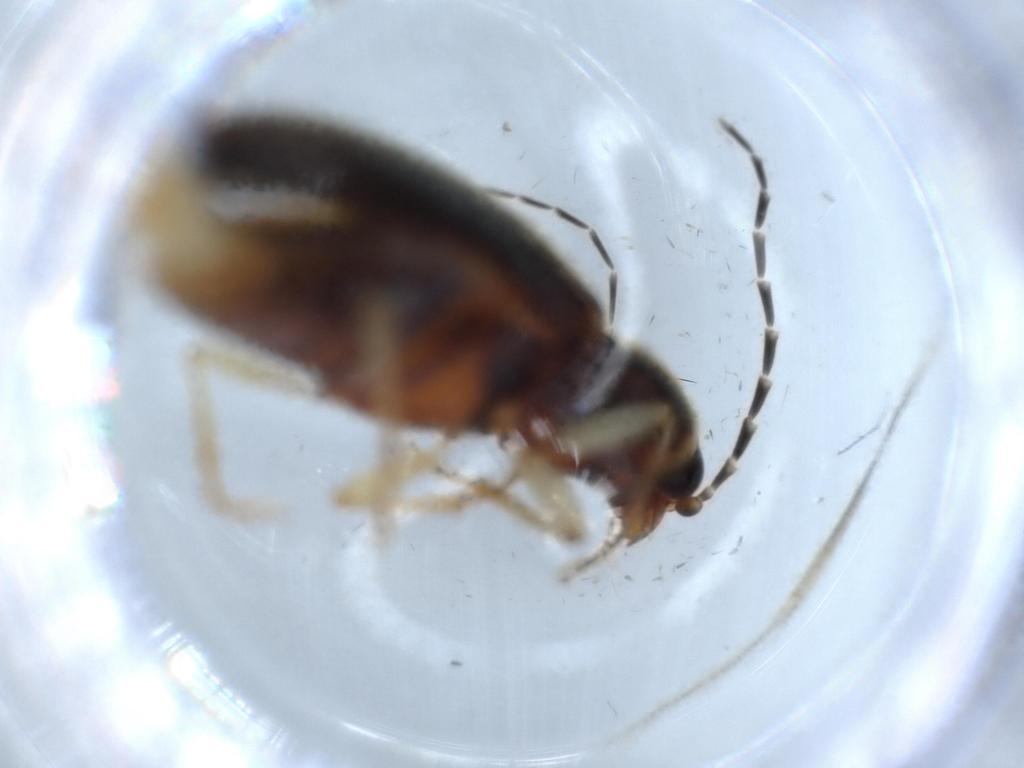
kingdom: Animalia
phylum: Arthropoda
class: Insecta
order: Coleoptera
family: Elateridae
